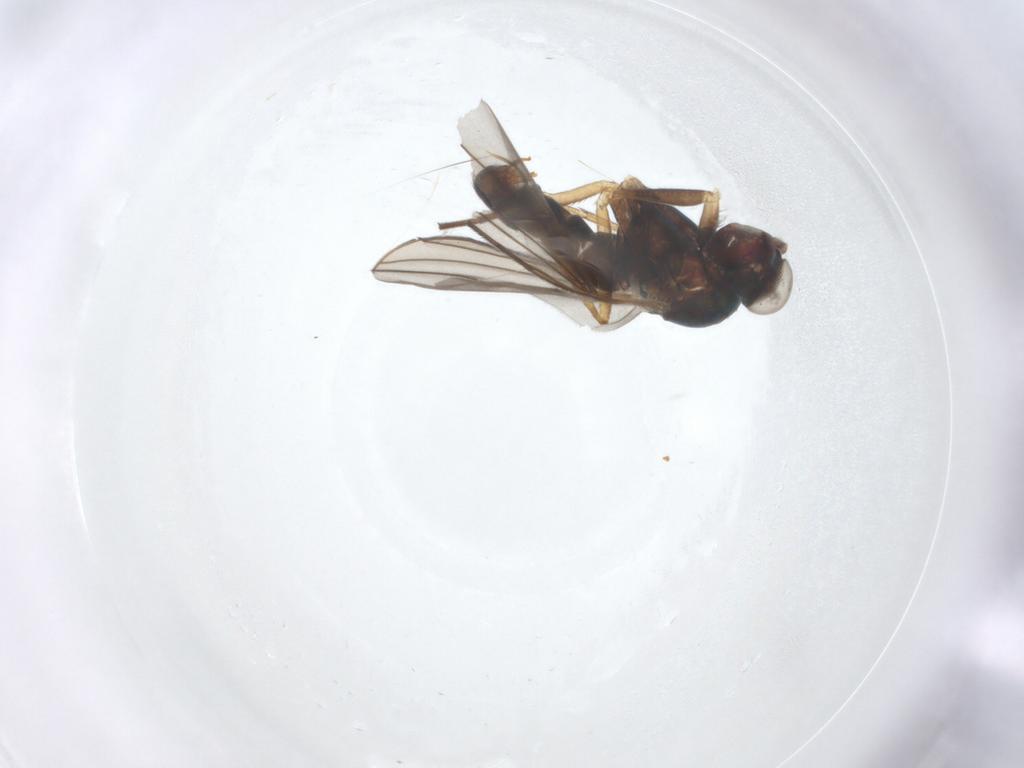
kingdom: Animalia
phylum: Arthropoda
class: Insecta
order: Diptera
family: Dolichopodidae
